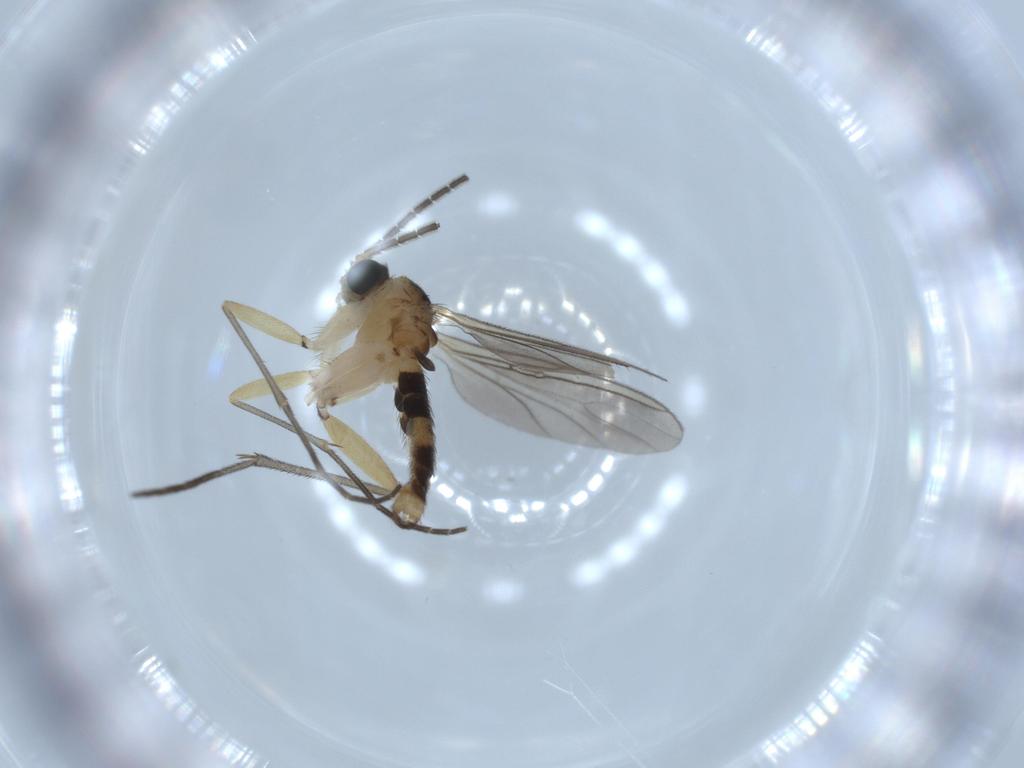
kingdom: Animalia
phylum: Arthropoda
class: Insecta
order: Diptera
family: Sciaridae
